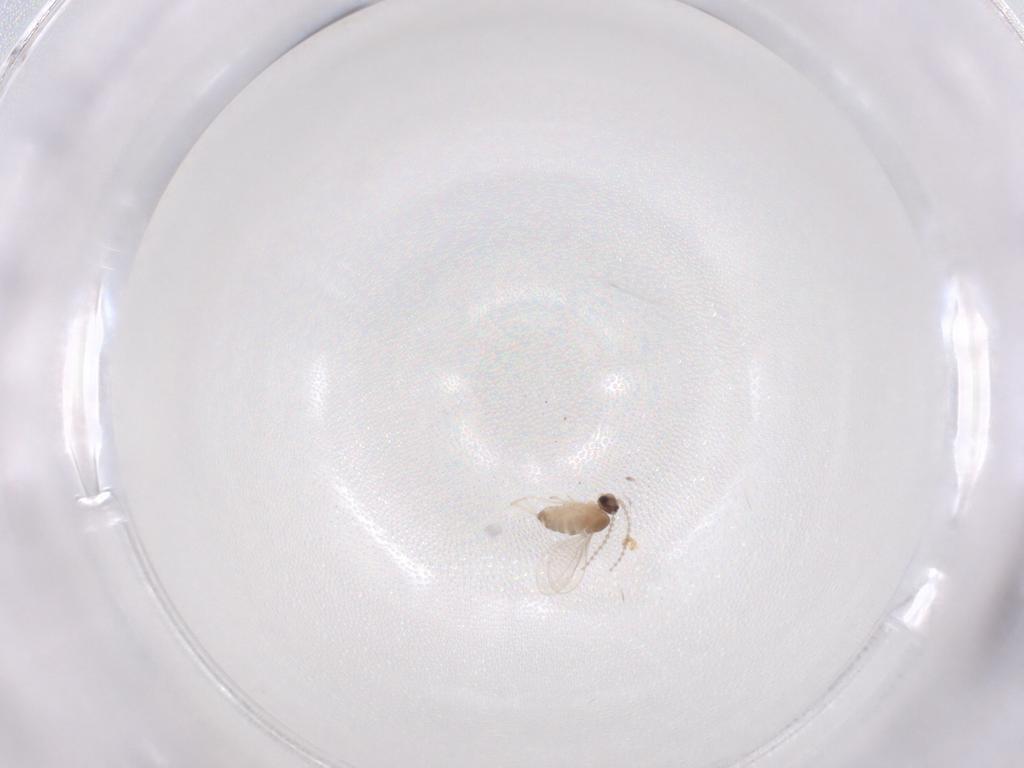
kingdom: Animalia
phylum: Arthropoda
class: Insecta
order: Diptera
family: Cecidomyiidae
